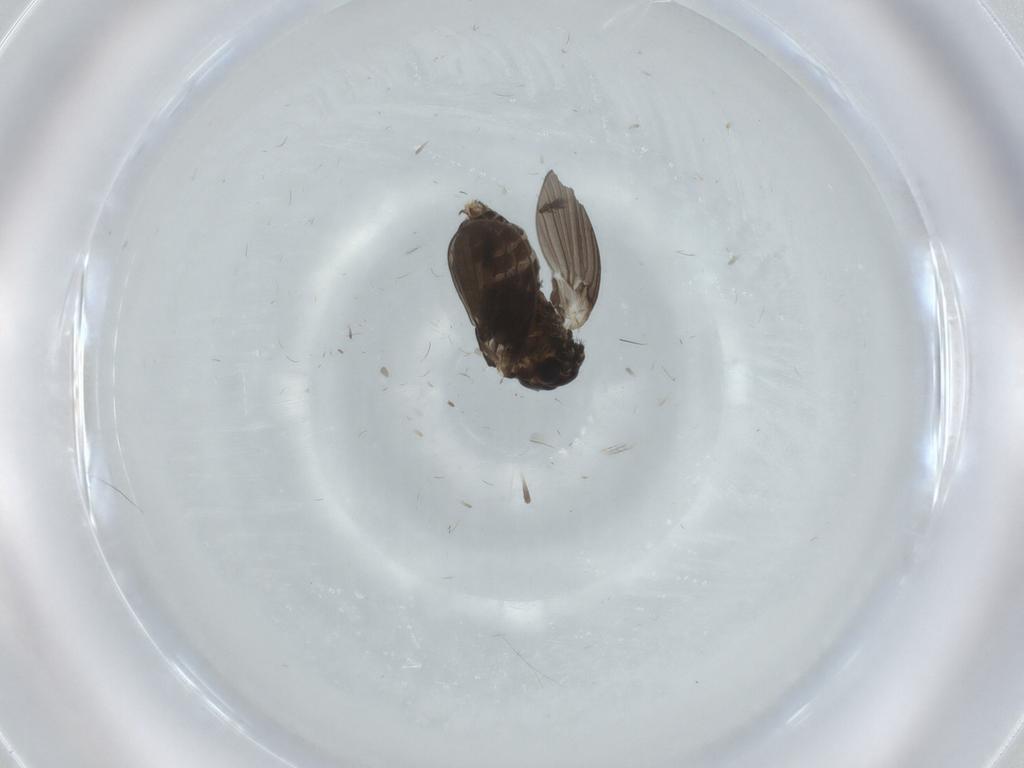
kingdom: Animalia
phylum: Arthropoda
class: Insecta
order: Diptera
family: Psychodidae
